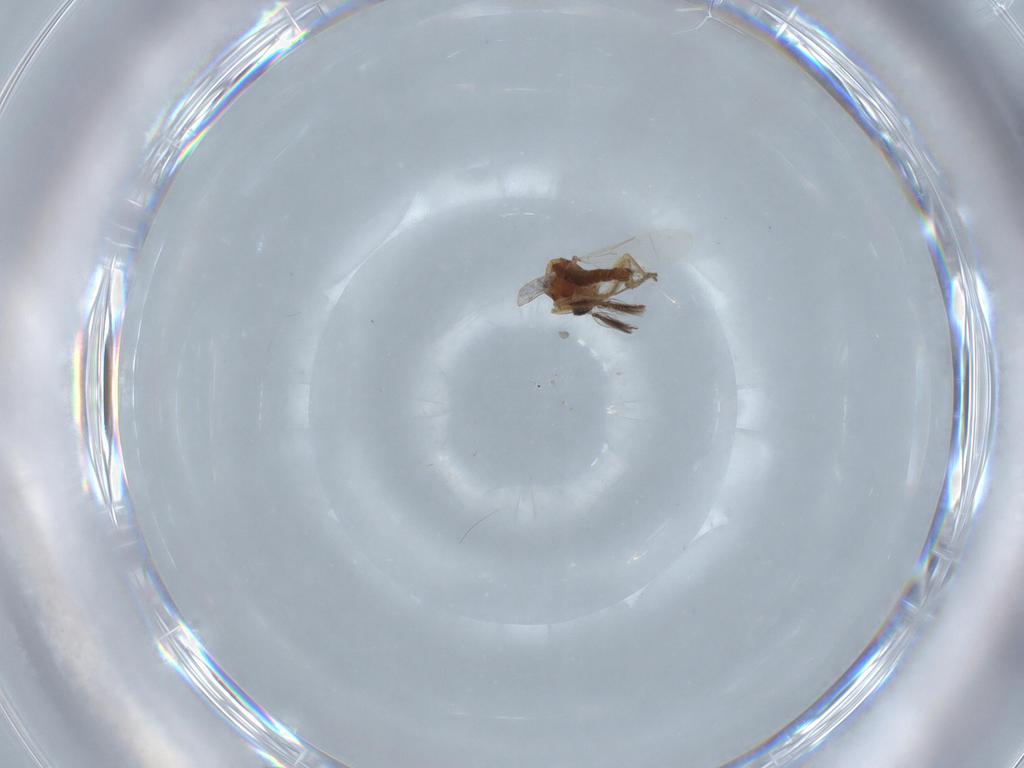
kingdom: Animalia
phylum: Arthropoda
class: Insecta
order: Diptera
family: Ceratopogonidae
